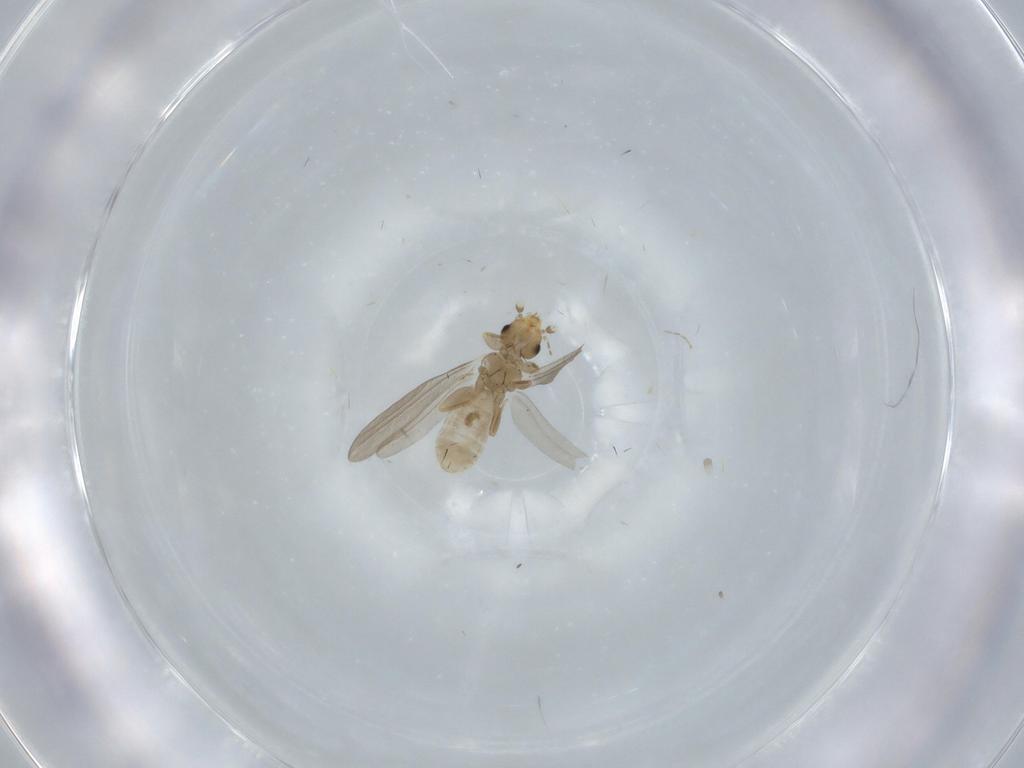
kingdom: Animalia
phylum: Arthropoda
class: Insecta
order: Psocodea
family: Liposcelididae
